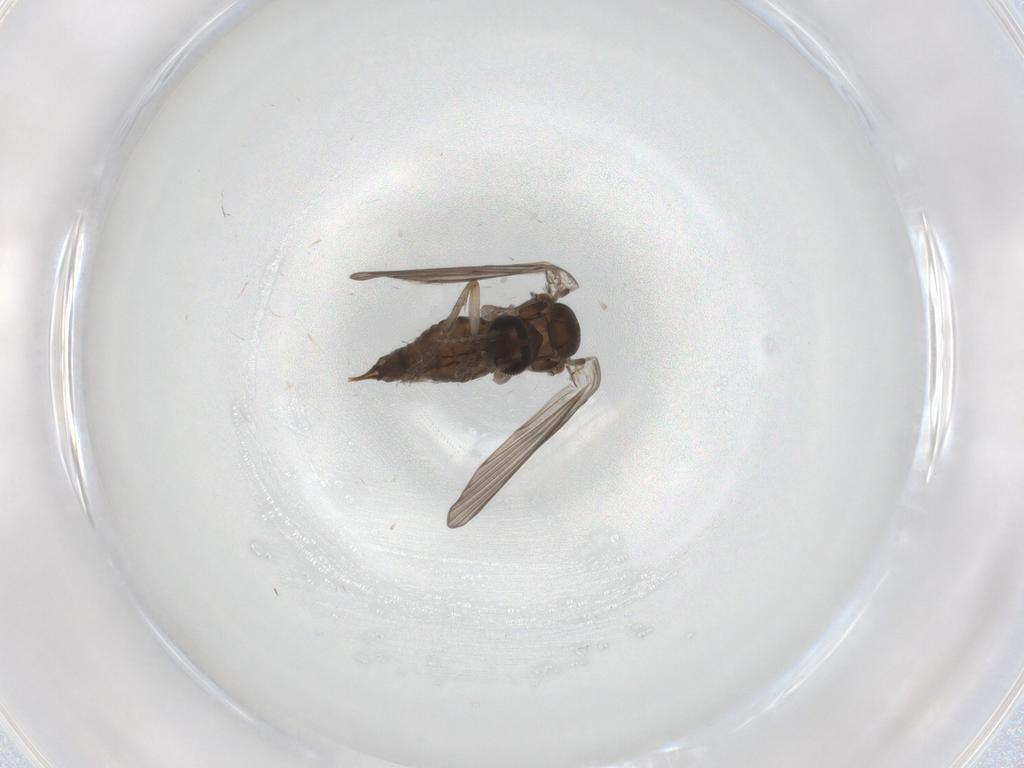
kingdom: Animalia
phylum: Arthropoda
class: Insecta
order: Diptera
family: Psychodidae
